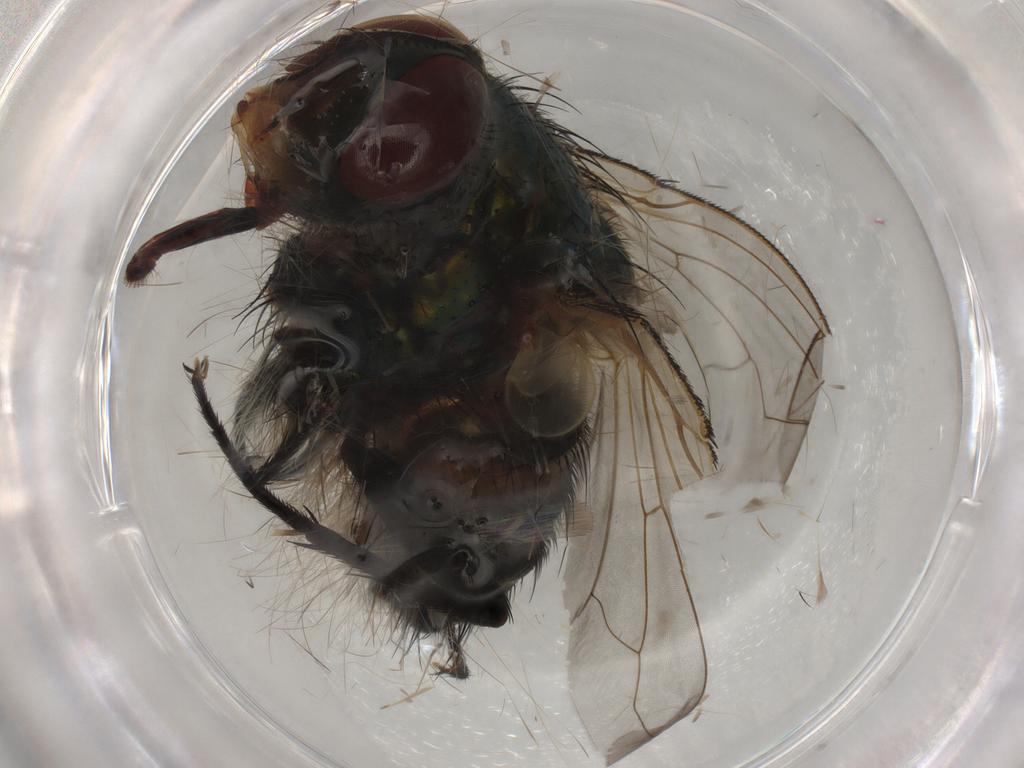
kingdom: Animalia
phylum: Arthropoda
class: Insecta
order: Diptera
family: Calliphoridae
